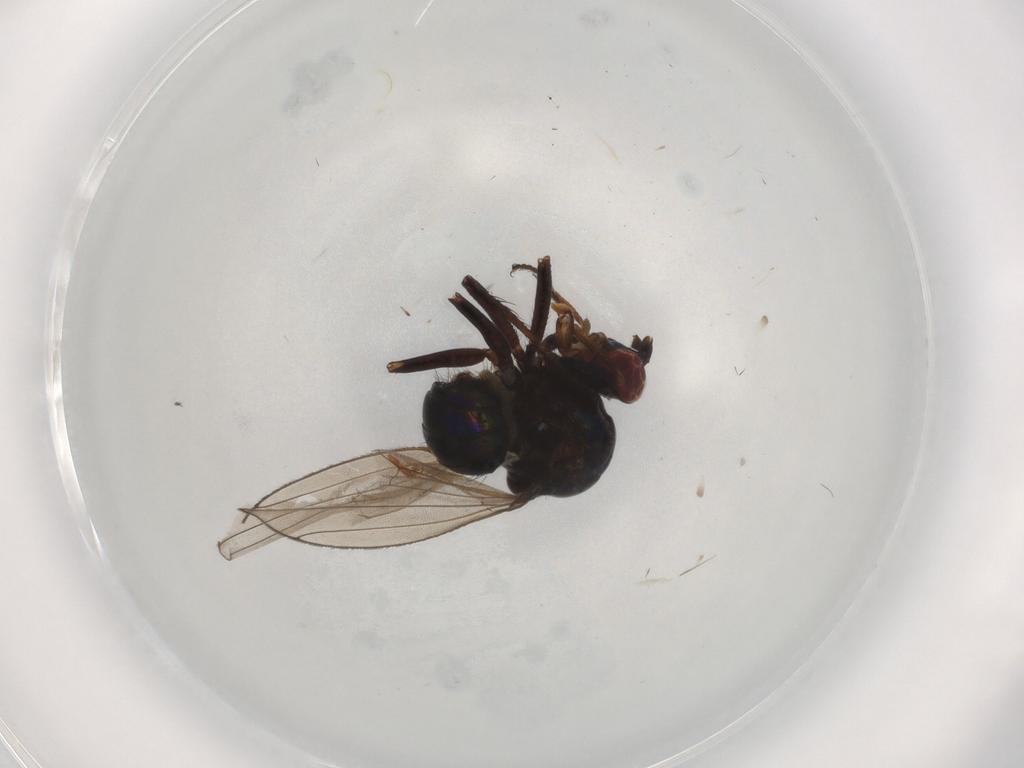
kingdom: Animalia
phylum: Arthropoda
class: Insecta
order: Diptera
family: Ephydridae
